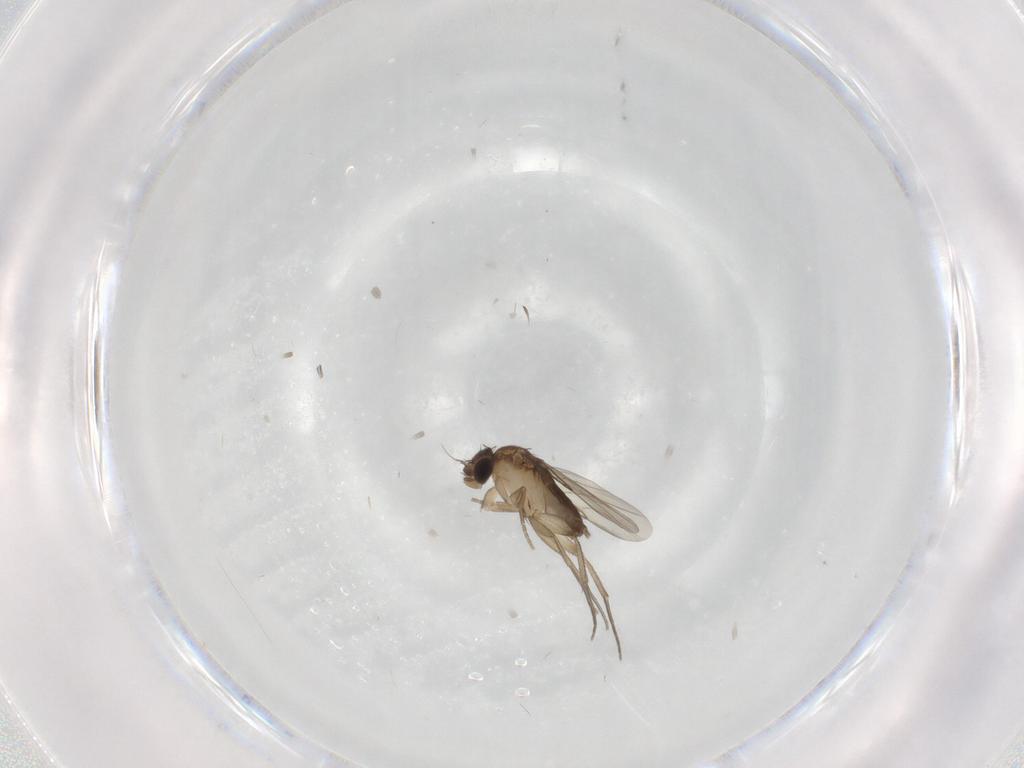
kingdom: Animalia
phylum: Arthropoda
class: Insecta
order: Diptera
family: Phoridae
